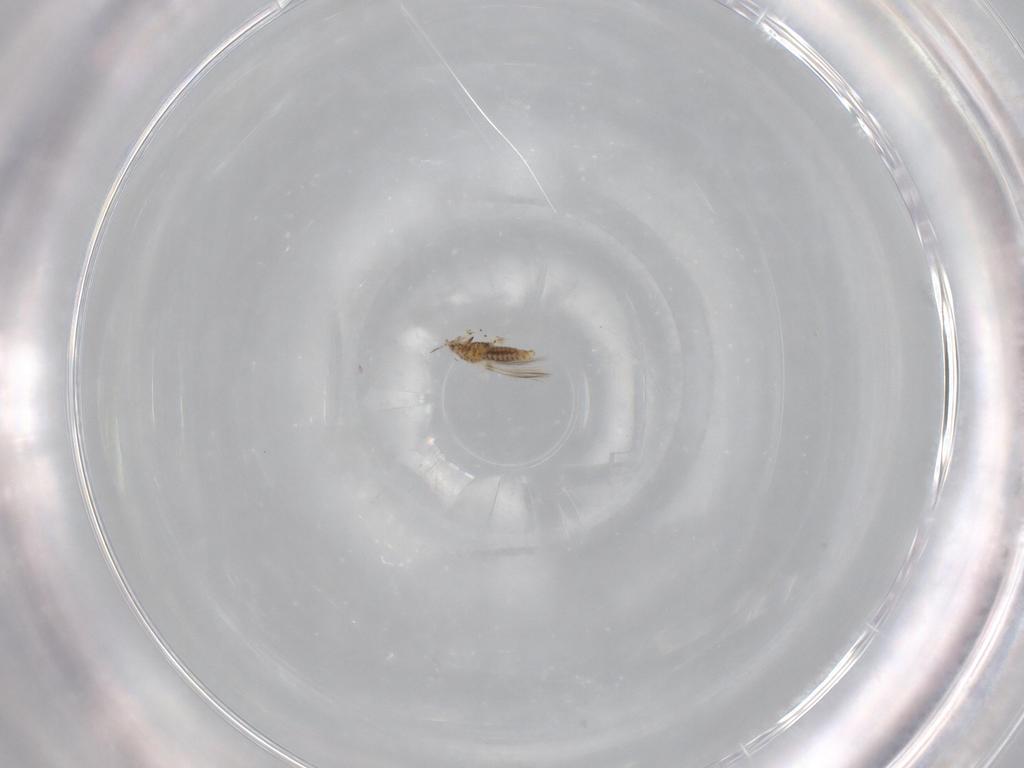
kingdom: Animalia
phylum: Arthropoda
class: Insecta
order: Thysanoptera
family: Thripidae
